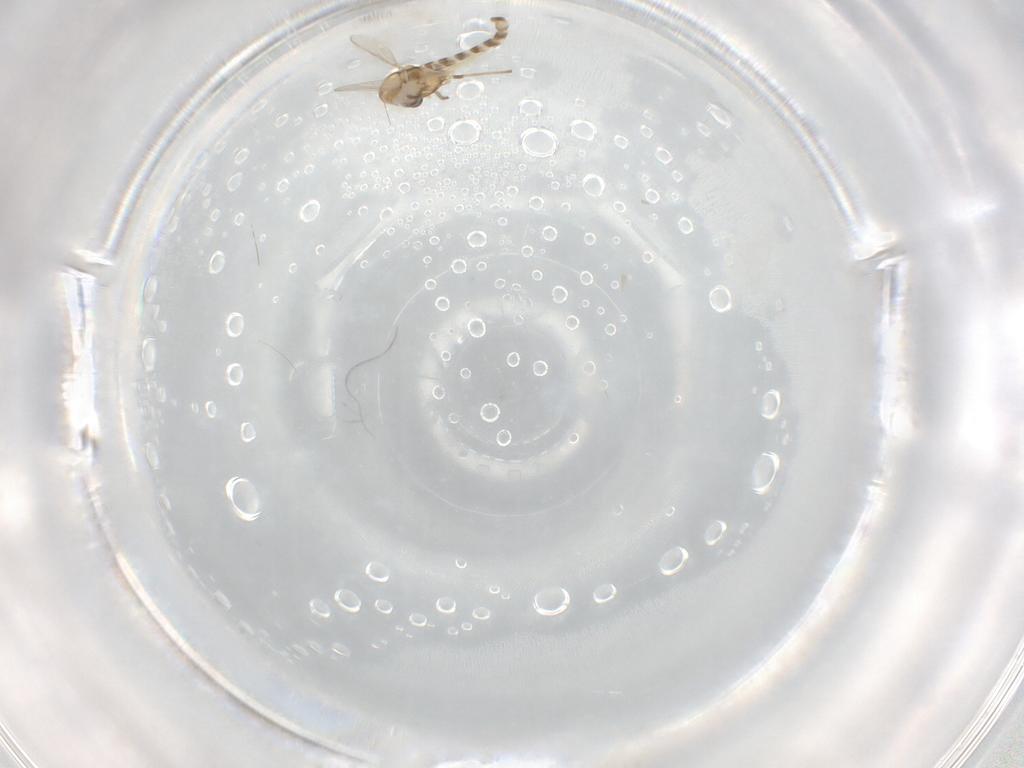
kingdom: Animalia
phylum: Arthropoda
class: Insecta
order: Diptera
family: Chironomidae
